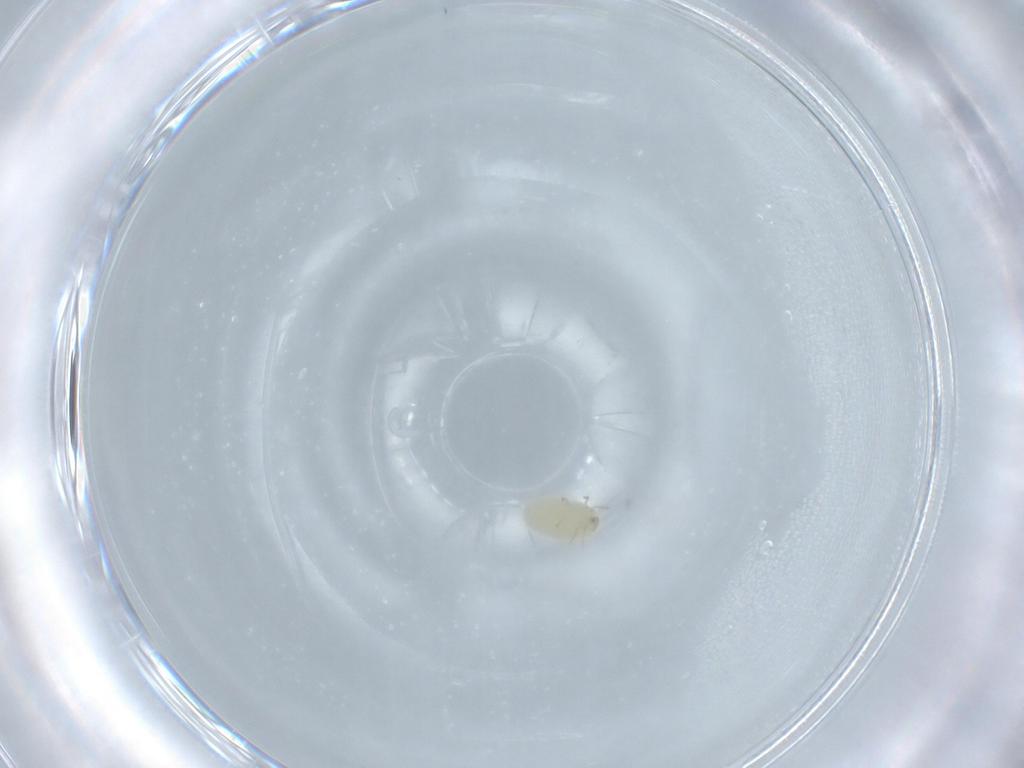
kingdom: Animalia
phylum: Arthropoda
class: Arachnida
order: Trombidiformes
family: Microtrombidiidae
